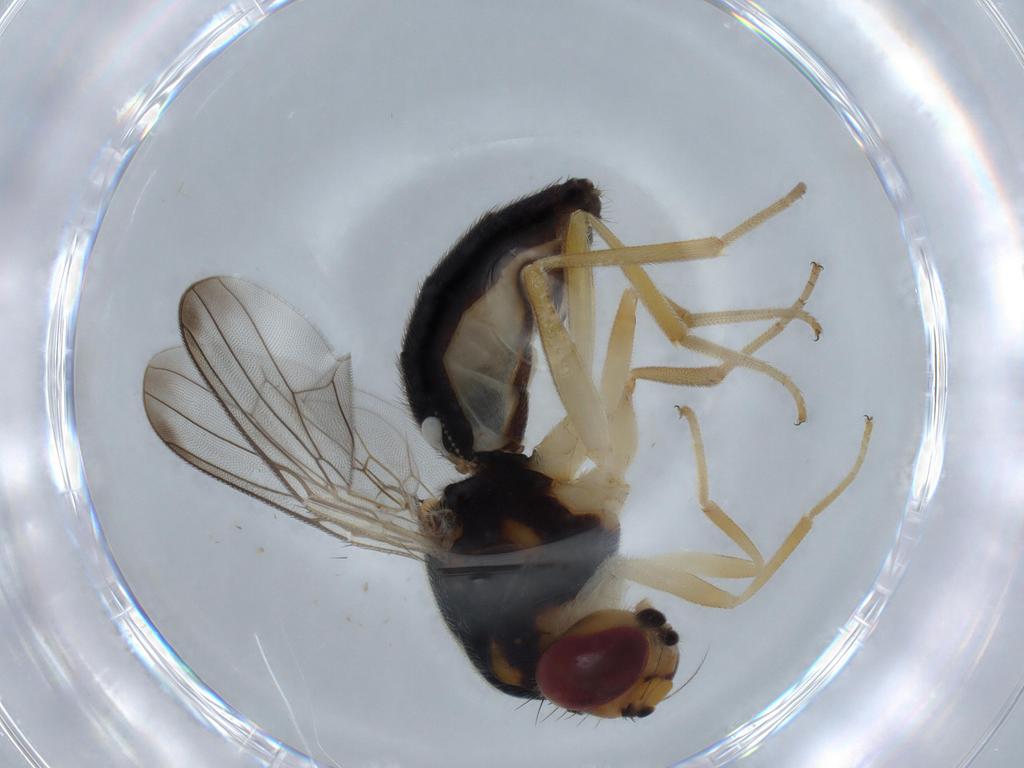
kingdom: Animalia
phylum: Arthropoda
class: Insecta
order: Diptera
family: Psilidae
